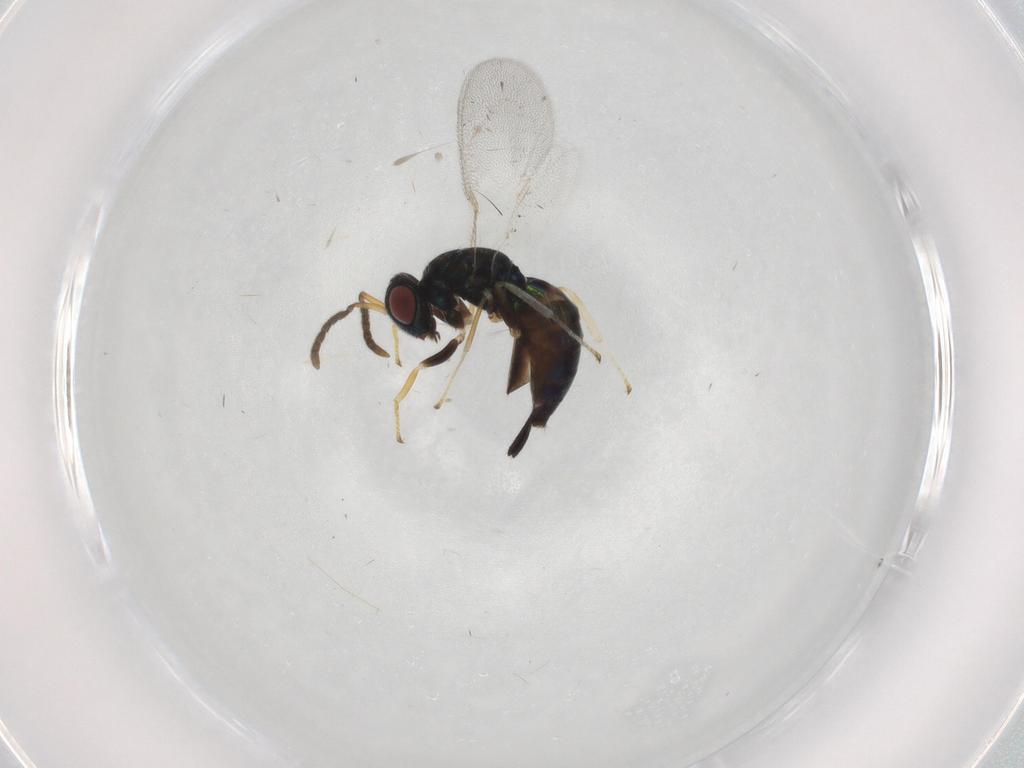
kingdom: Animalia
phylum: Arthropoda
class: Insecta
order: Hymenoptera
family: Pteromalidae
